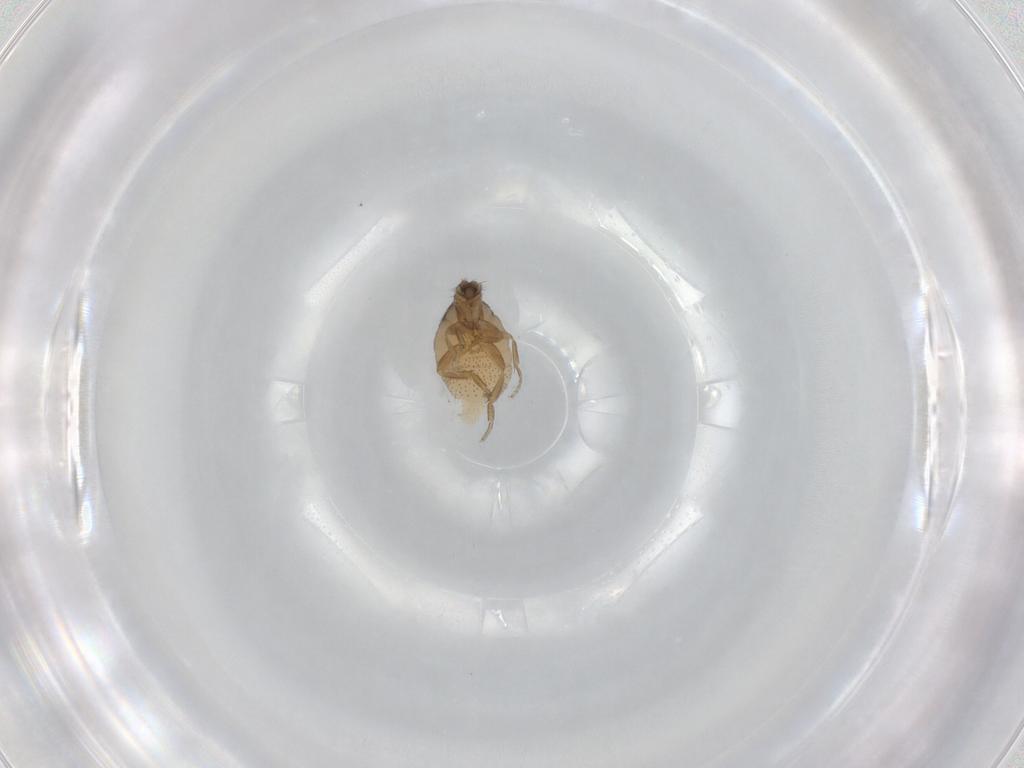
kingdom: Animalia
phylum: Arthropoda
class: Insecta
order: Diptera
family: Phoridae
